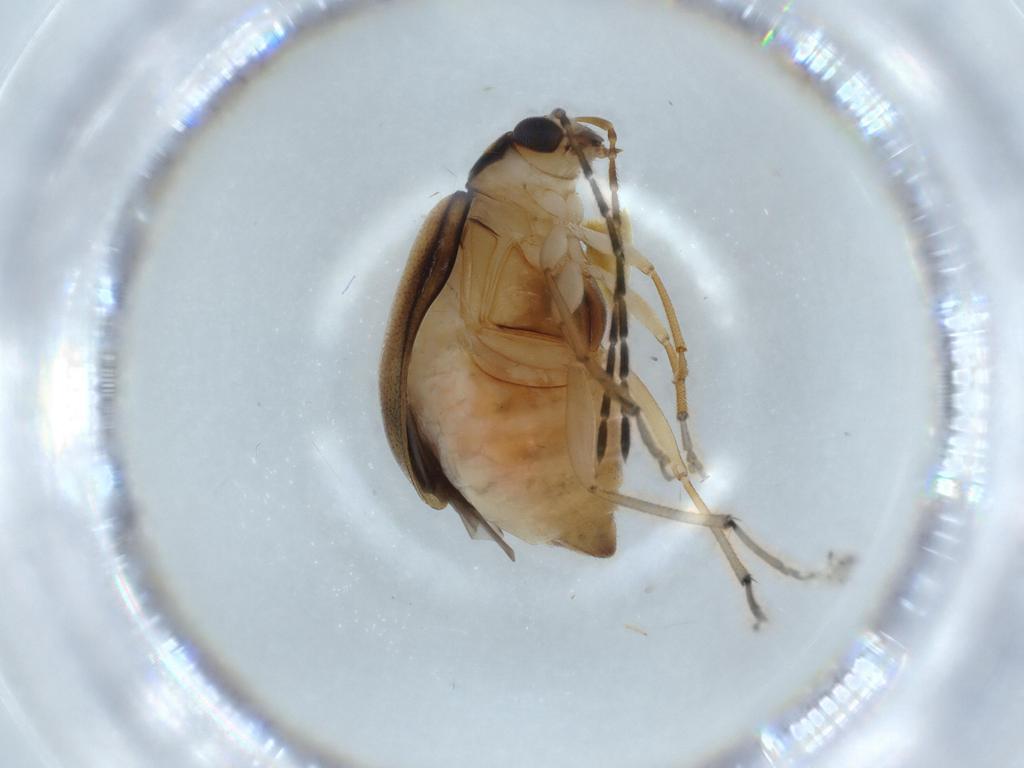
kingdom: Animalia
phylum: Arthropoda
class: Insecta
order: Coleoptera
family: Chrysomelidae
